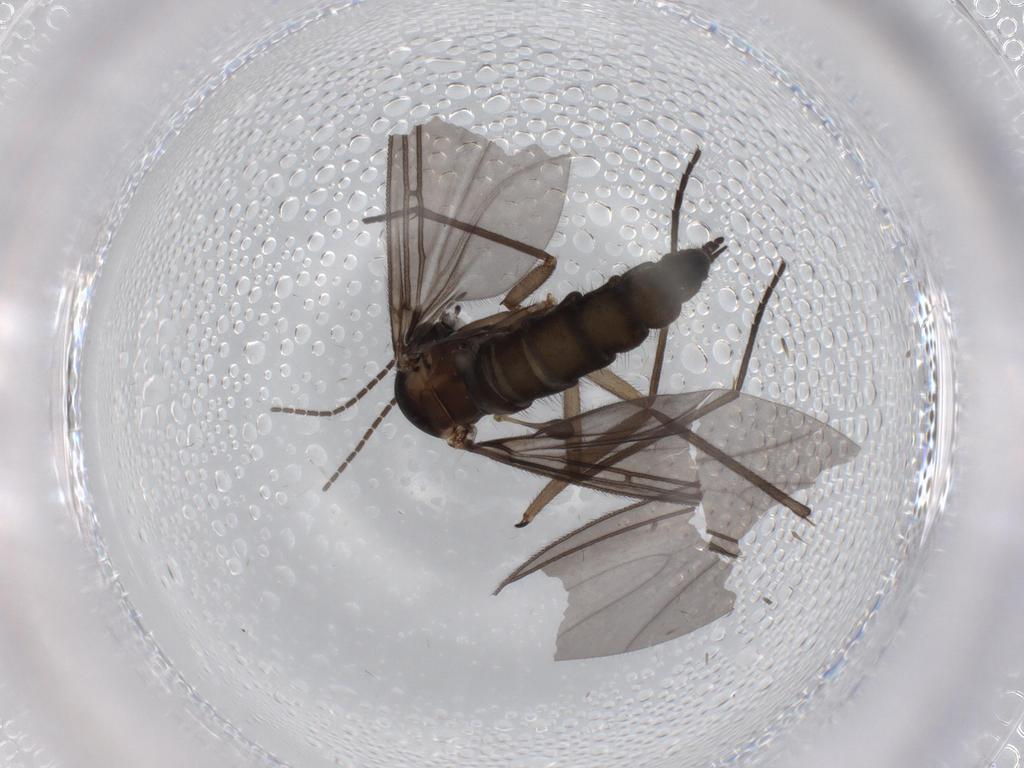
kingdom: Animalia
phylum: Arthropoda
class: Insecta
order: Diptera
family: Sciaridae
